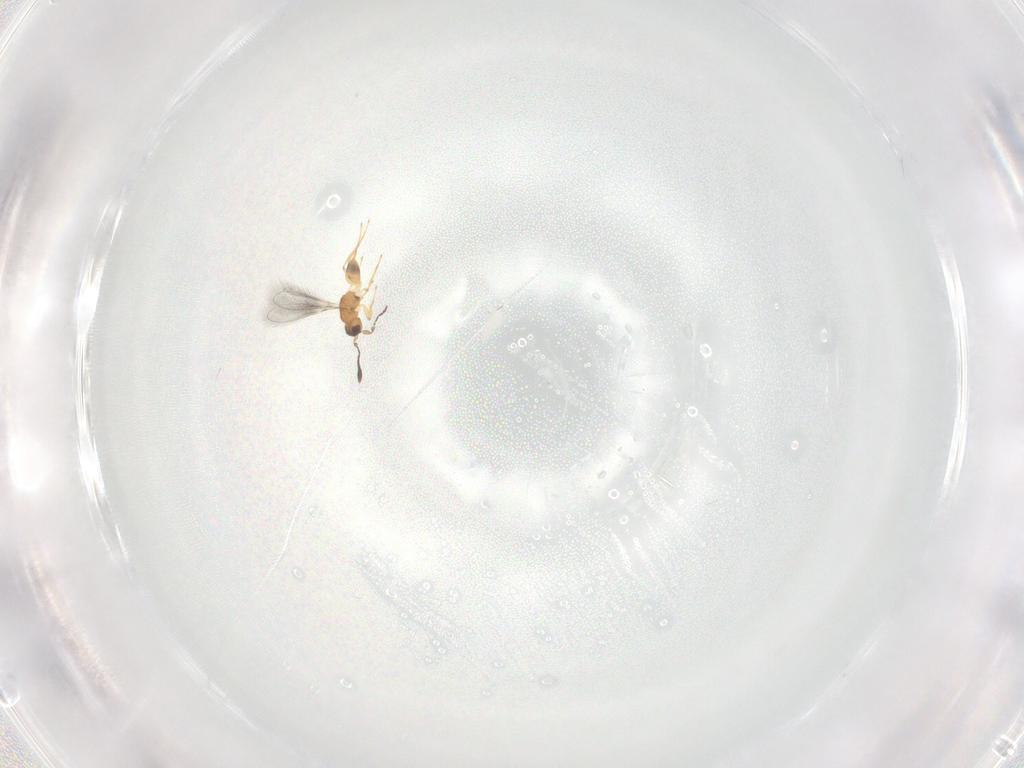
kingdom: Animalia
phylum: Arthropoda
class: Insecta
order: Hymenoptera
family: Mymaridae
